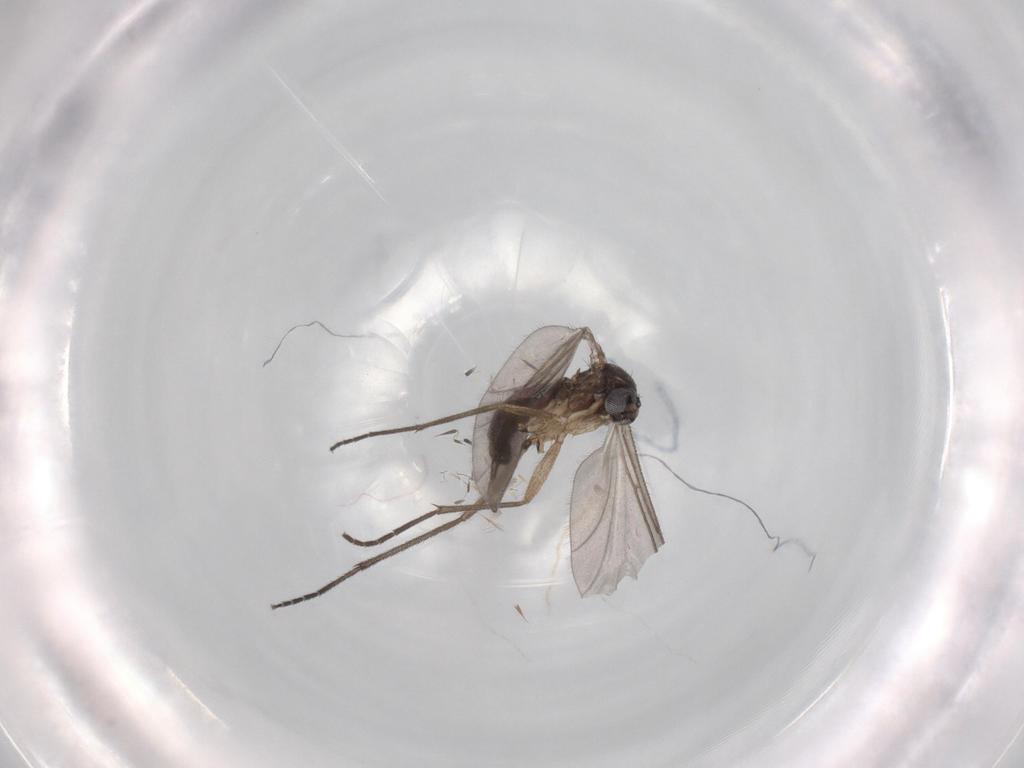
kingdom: Animalia
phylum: Arthropoda
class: Insecta
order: Diptera
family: Sciaridae
